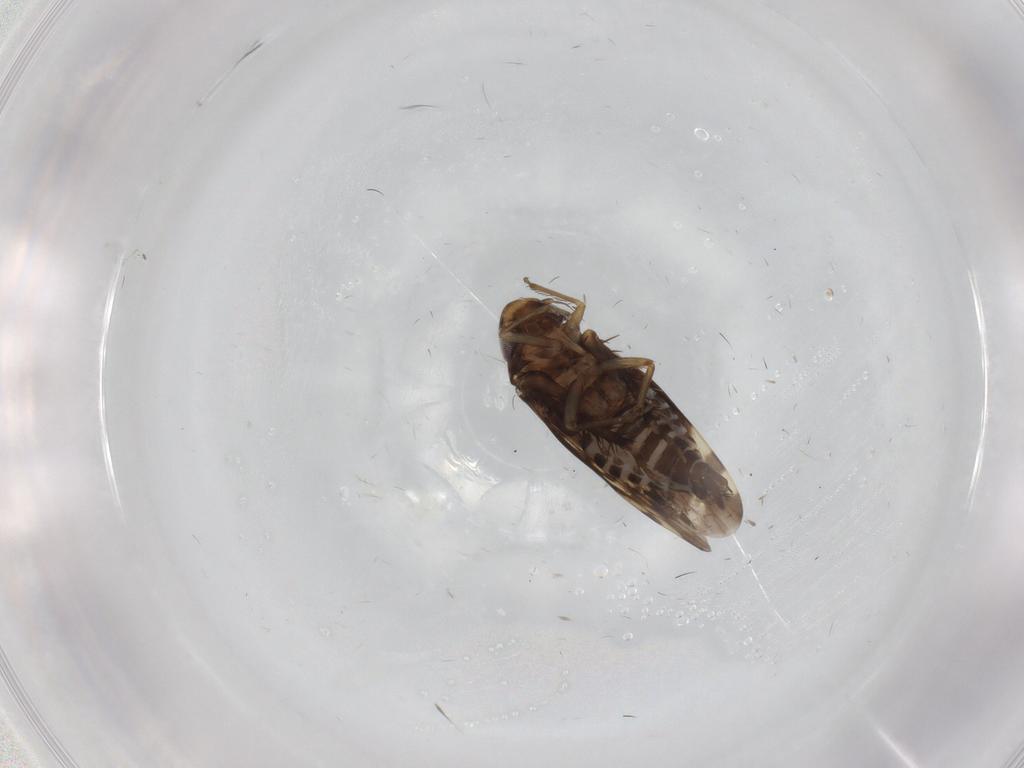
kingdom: Animalia
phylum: Arthropoda
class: Insecta
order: Hemiptera
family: Cicadellidae
